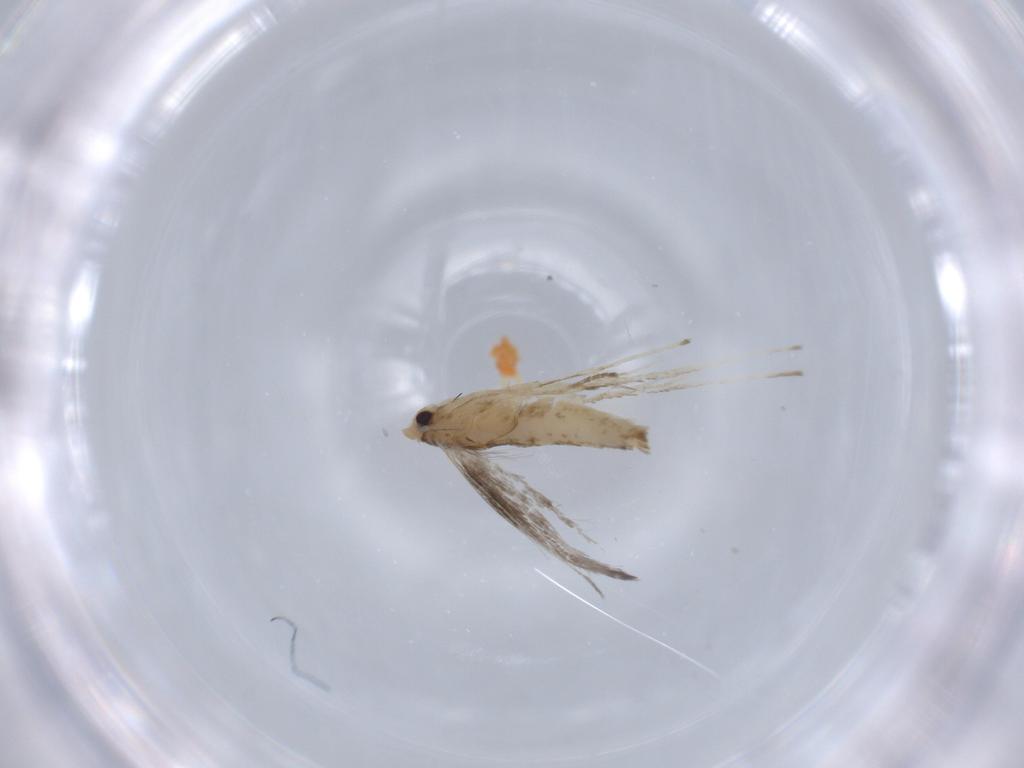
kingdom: Animalia
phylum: Arthropoda
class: Insecta
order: Lepidoptera
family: Gracillariidae
